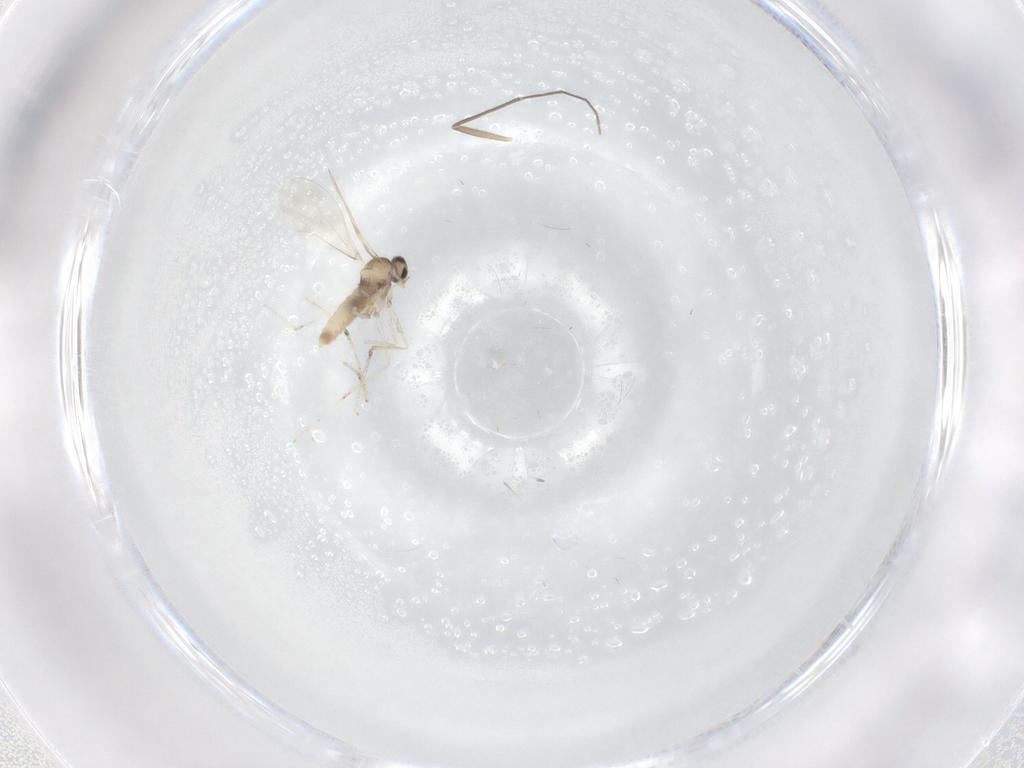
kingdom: Animalia
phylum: Arthropoda
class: Insecta
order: Diptera
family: Cecidomyiidae
